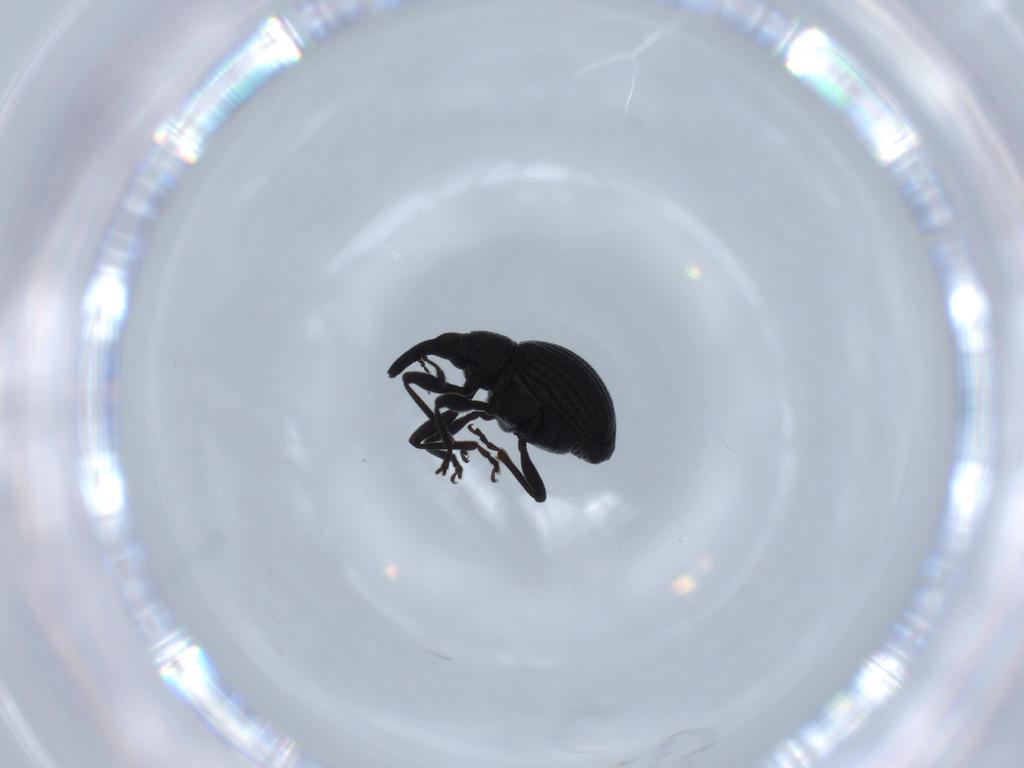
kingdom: Animalia
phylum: Arthropoda
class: Insecta
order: Coleoptera
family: Brentidae
